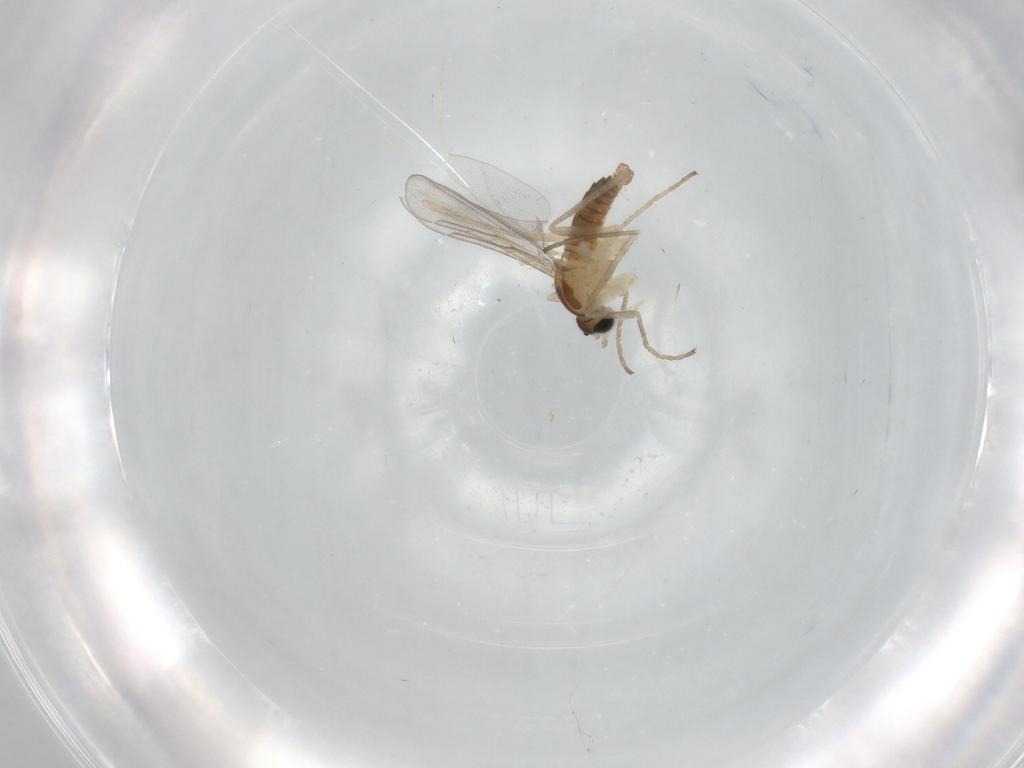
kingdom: Animalia
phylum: Arthropoda
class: Insecta
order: Diptera
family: Cecidomyiidae
